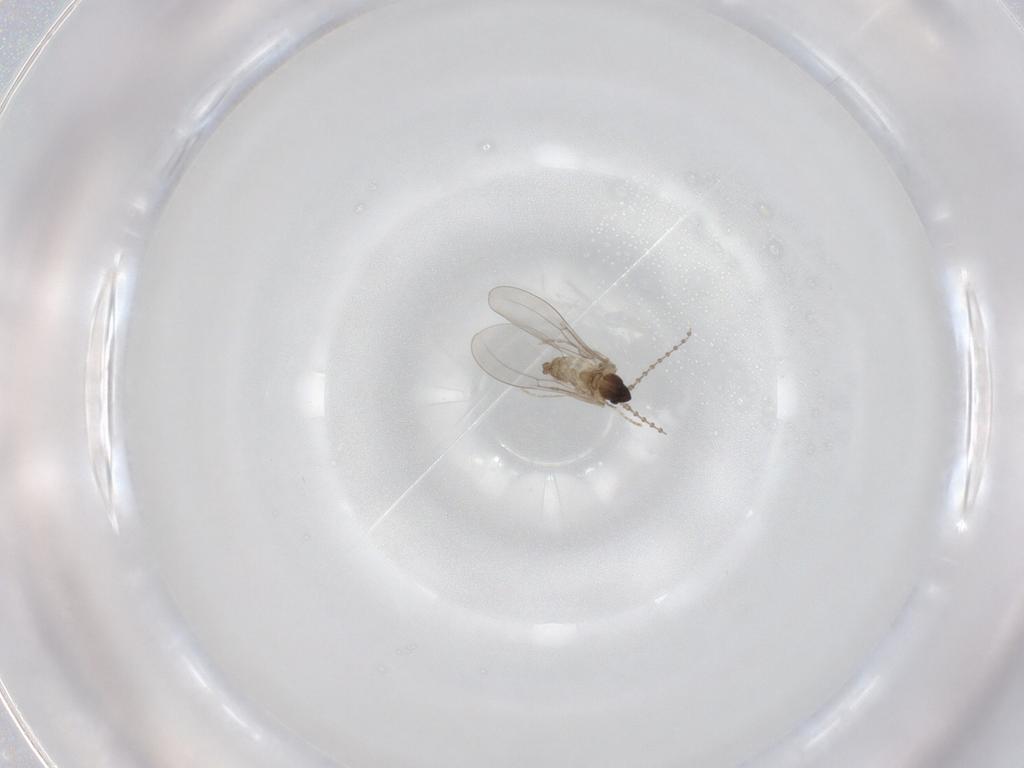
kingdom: Animalia
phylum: Arthropoda
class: Insecta
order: Diptera
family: Cecidomyiidae
